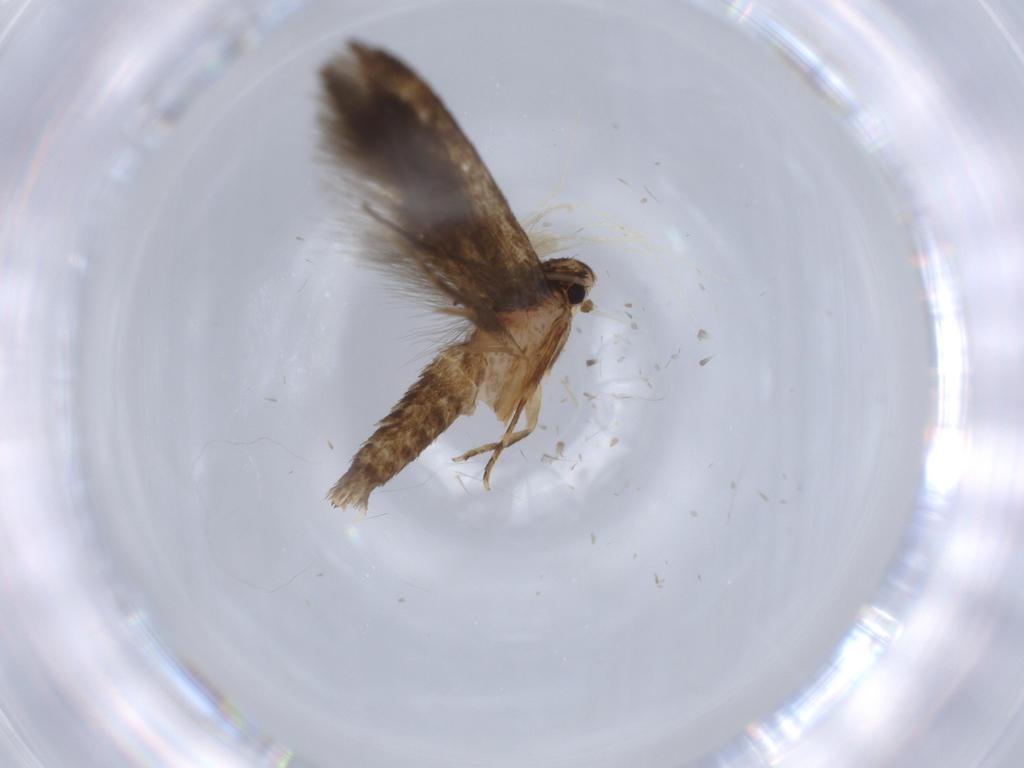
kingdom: Animalia
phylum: Arthropoda
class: Insecta
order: Lepidoptera
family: Tineidae
